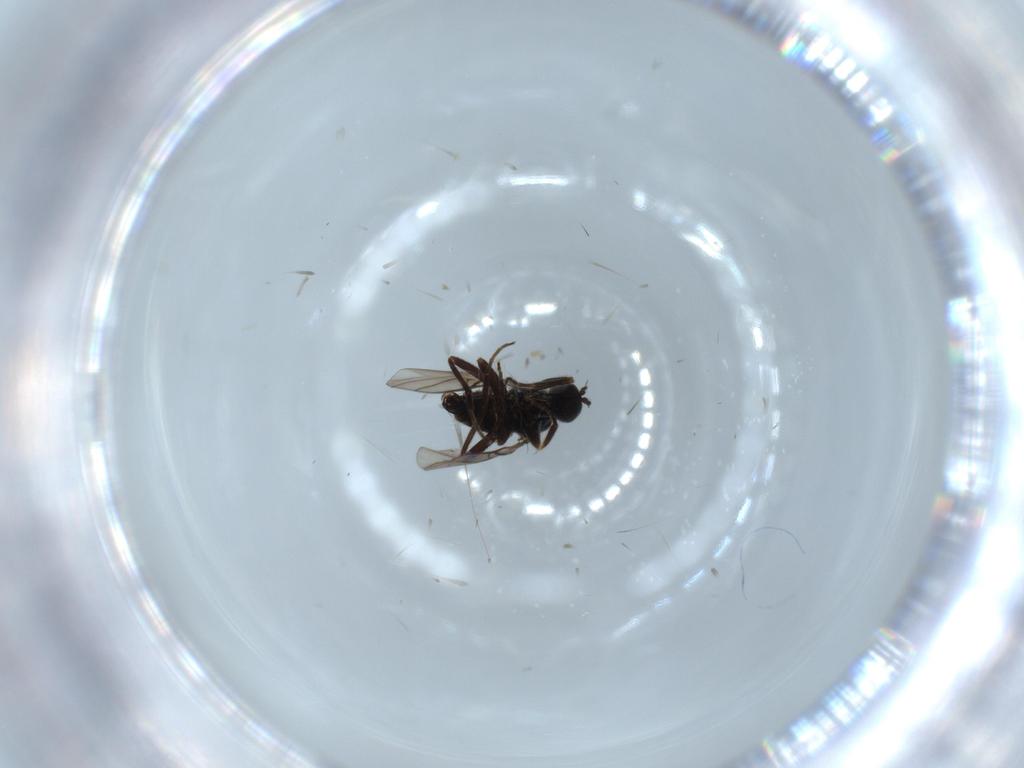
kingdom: Animalia
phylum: Arthropoda
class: Insecta
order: Diptera
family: Hybotidae
